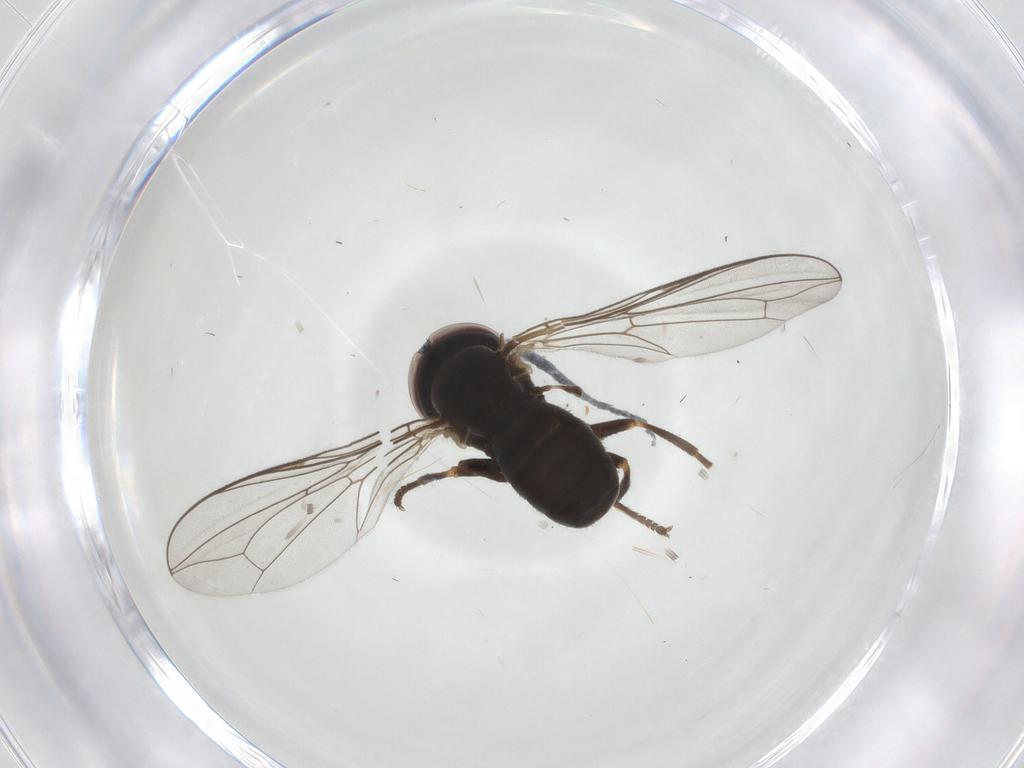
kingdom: Animalia
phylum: Arthropoda
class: Insecta
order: Diptera
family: Pipunculidae
